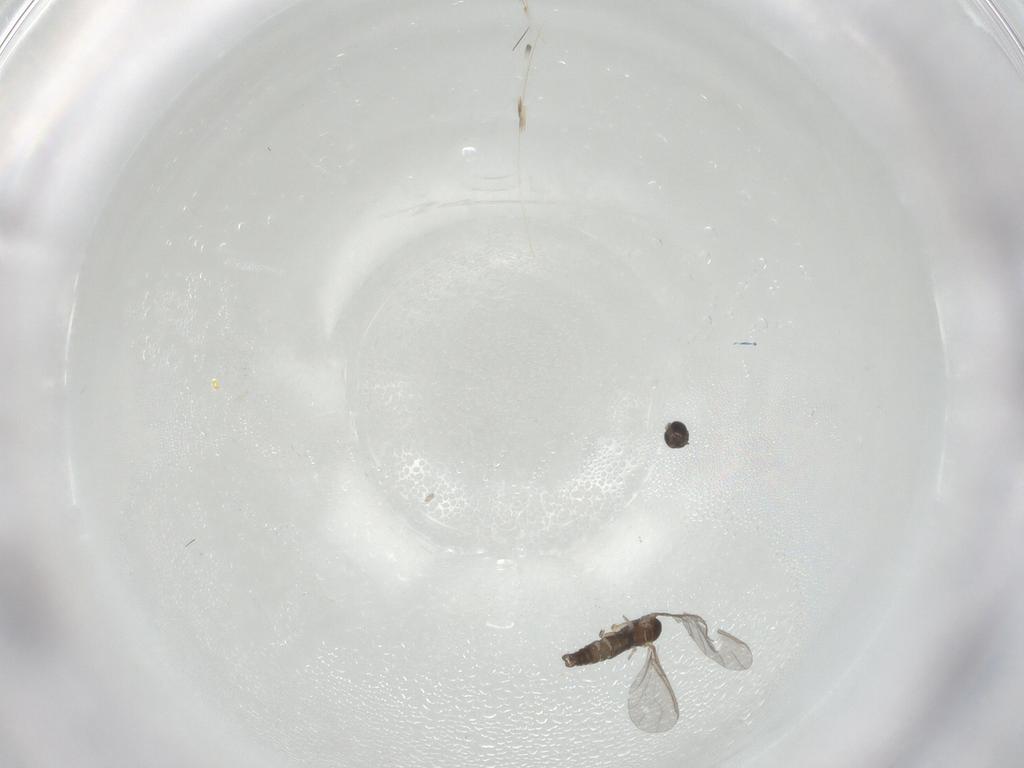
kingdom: Animalia
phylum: Arthropoda
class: Insecta
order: Diptera
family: Sciaridae
